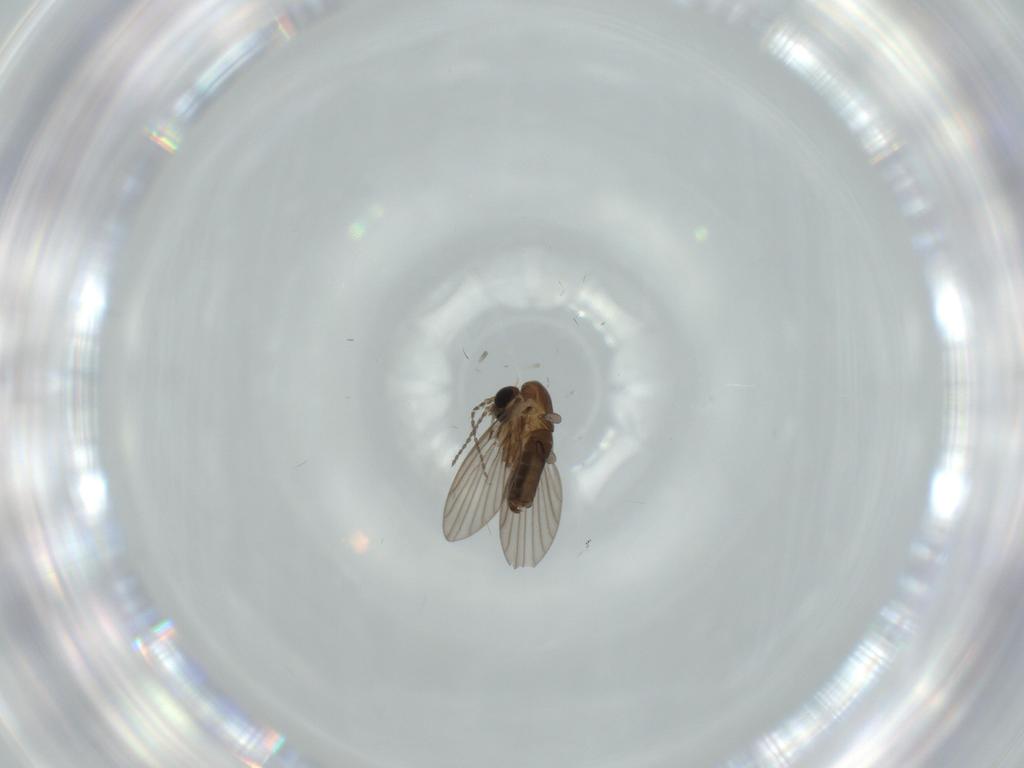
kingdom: Animalia
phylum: Arthropoda
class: Insecta
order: Diptera
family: Psychodidae
